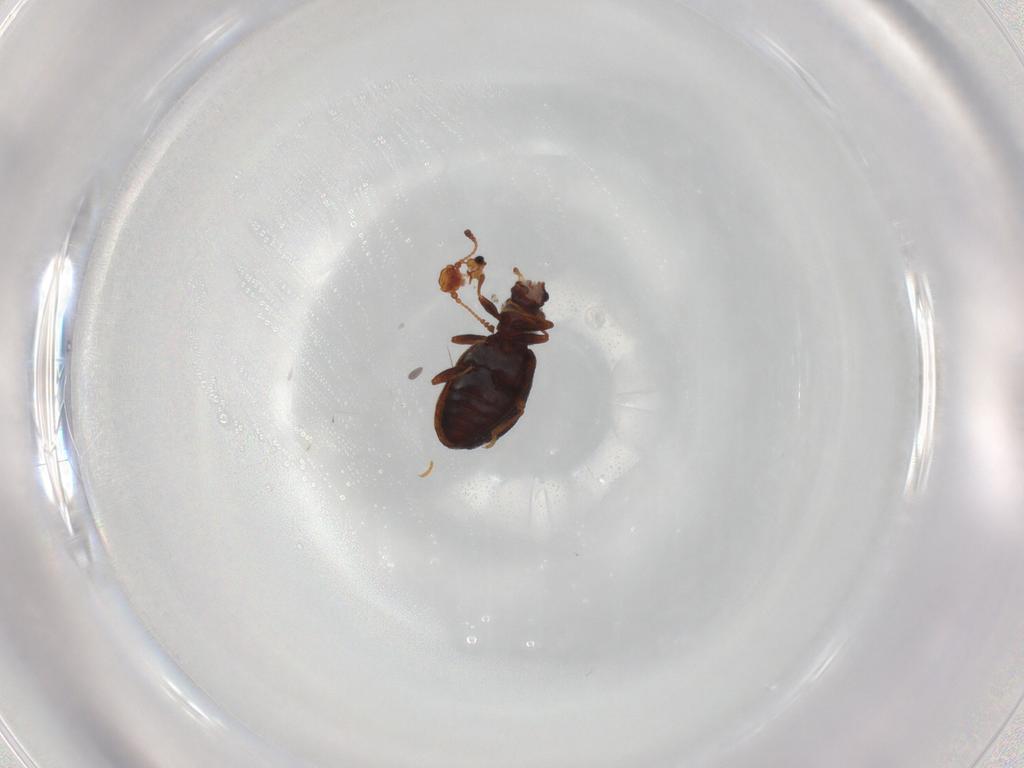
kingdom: Animalia
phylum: Arthropoda
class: Insecta
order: Coleoptera
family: Latridiidae
